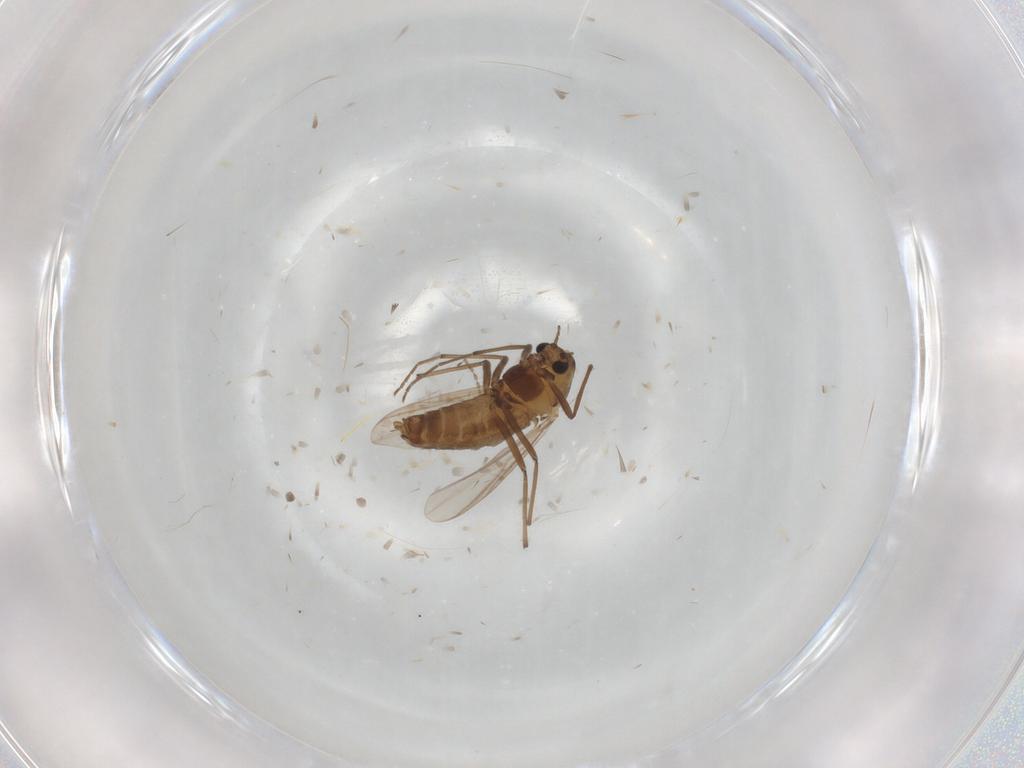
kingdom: Animalia
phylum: Arthropoda
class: Insecta
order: Diptera
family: Chironomidae
